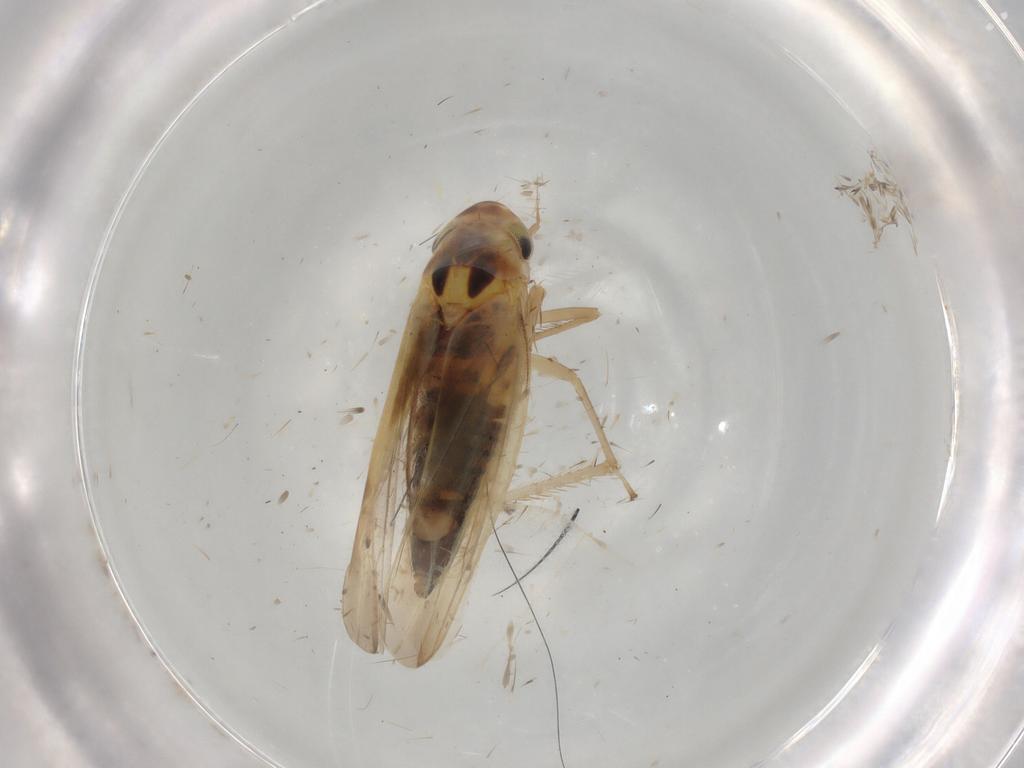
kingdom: Animalia
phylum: Arthropoda
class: Insecta
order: Hemiptera
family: Cicadellidae
